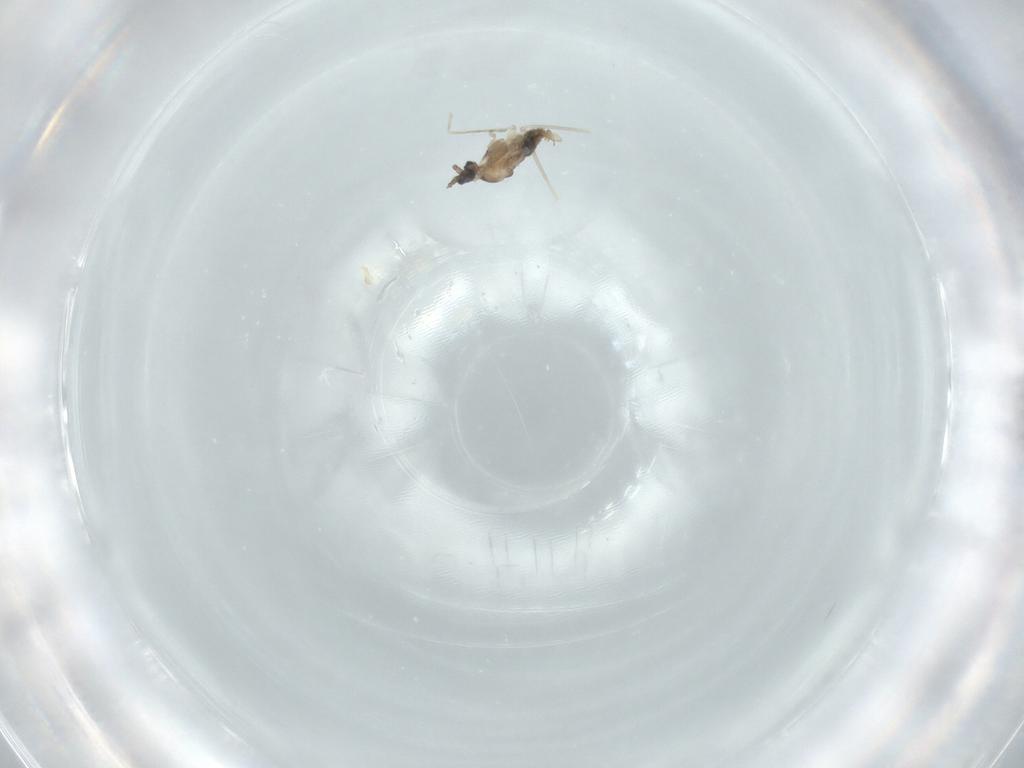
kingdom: Animalia
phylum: Arthropoda
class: Insecta
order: Diptera
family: Cecidomyiidae
